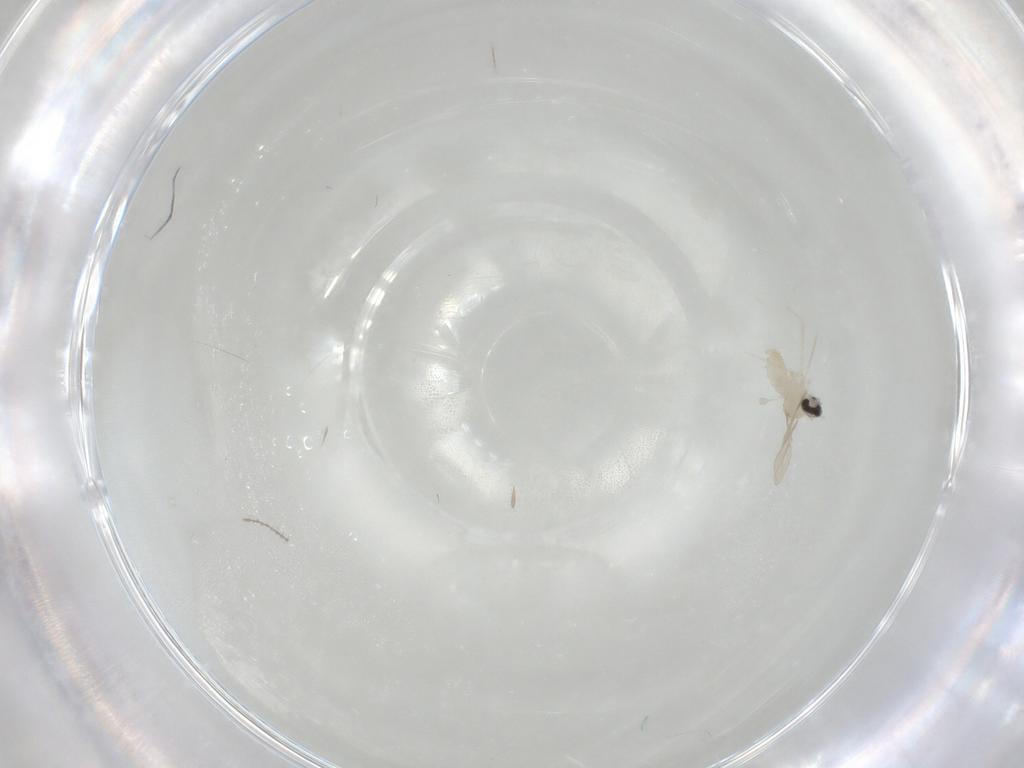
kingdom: Animalia
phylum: Arthropoda
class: Insecta
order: Diptera
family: Cecidomyiidae
